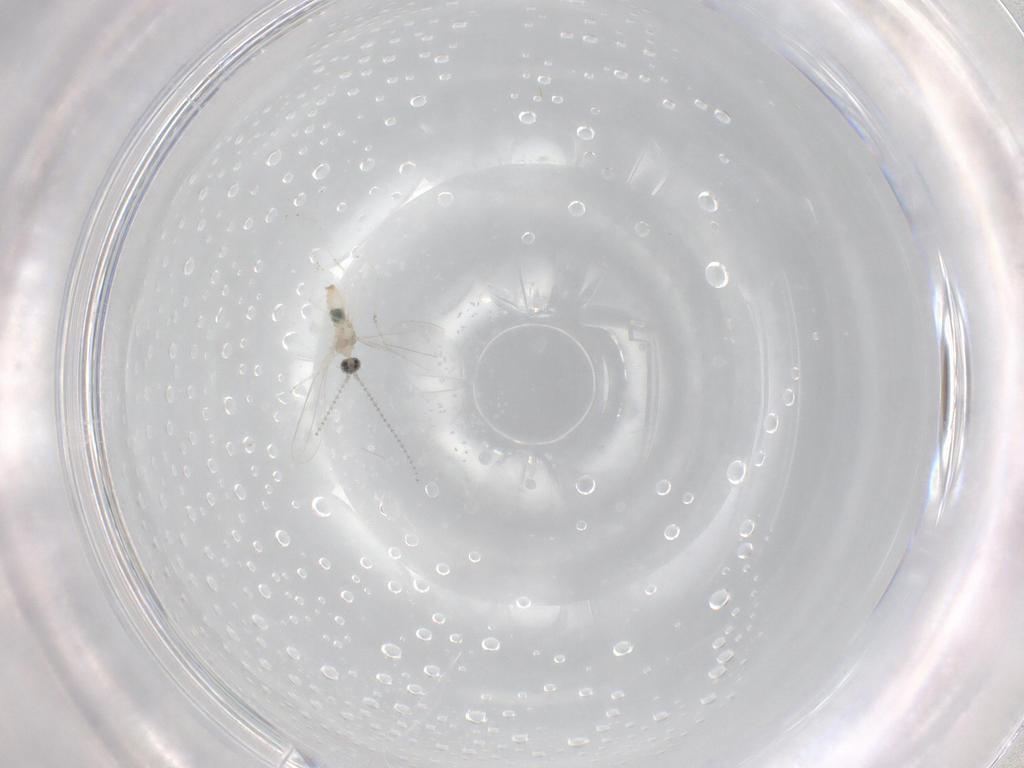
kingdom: Animalia
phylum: Arthropoda
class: Insecta
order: Diptera
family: Cecidomyiidae
